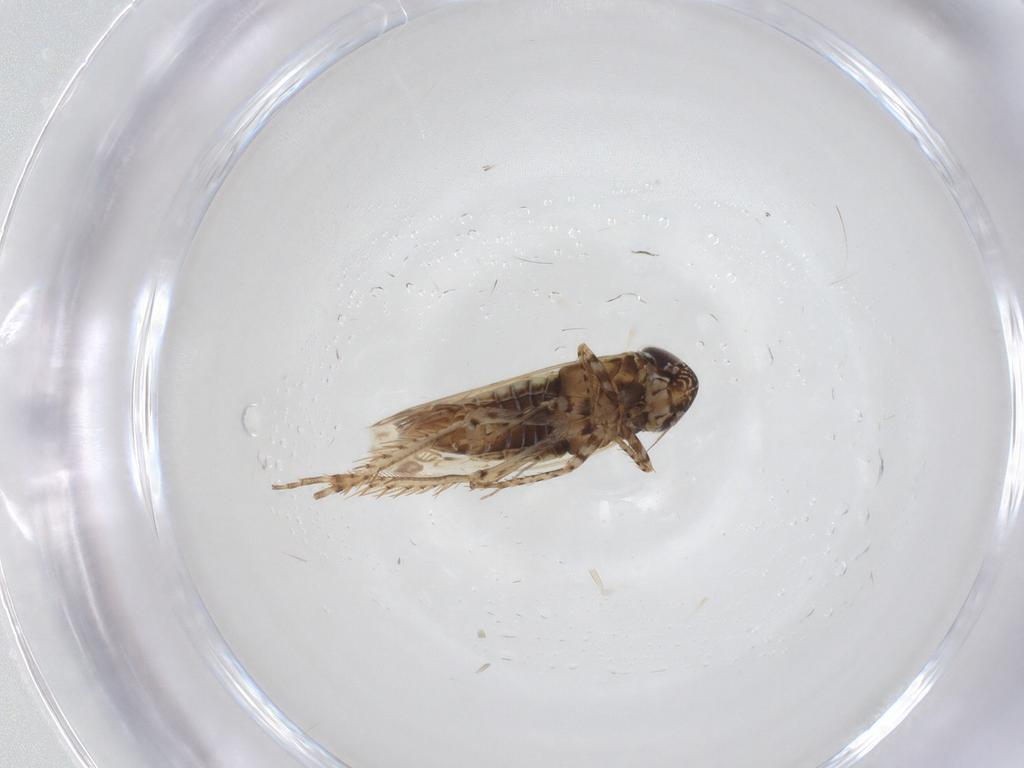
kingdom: Animalia
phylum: Arthropoda
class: Insecta
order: Hemiptera
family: Cicadellidae
